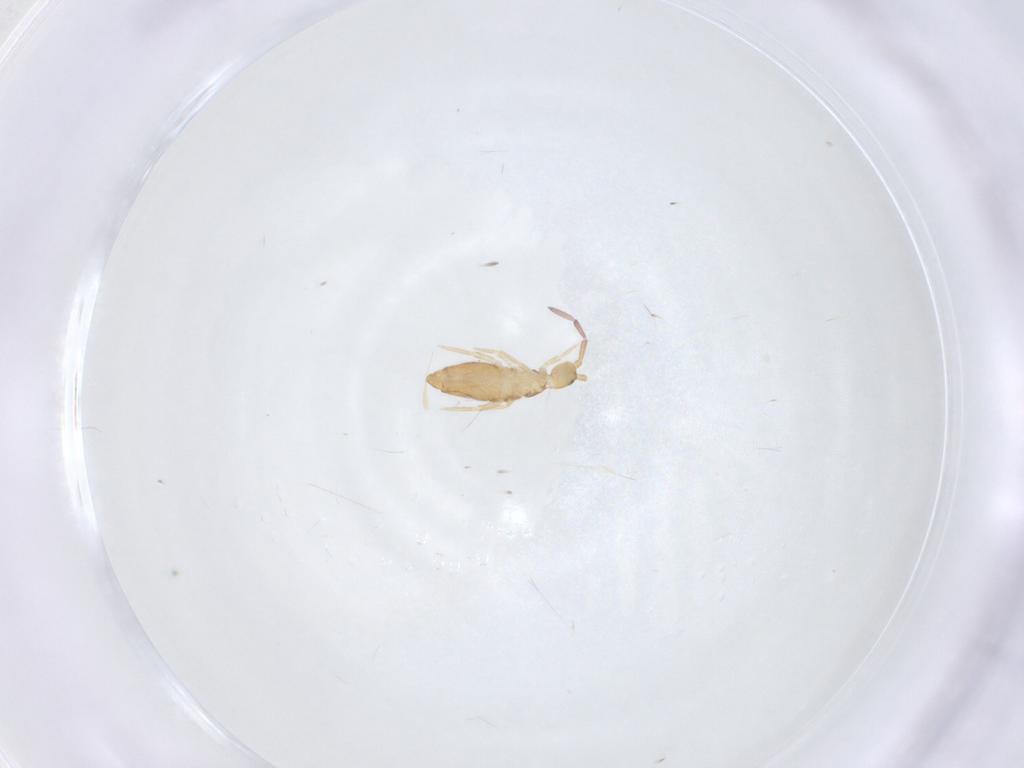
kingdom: Animalia
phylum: Arthropoda
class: Collembola
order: Entomobryomorpha
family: Entomobryidae
